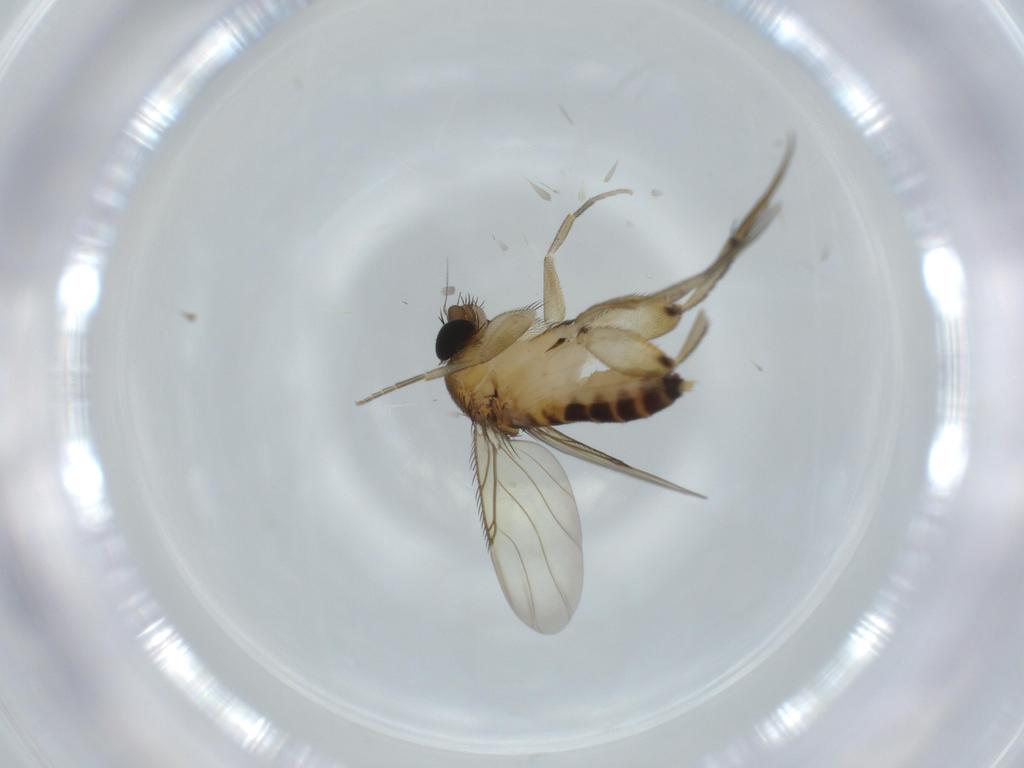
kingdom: Animalia
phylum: Arthropoda
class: Insecta
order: Diptera
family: Phoridae
